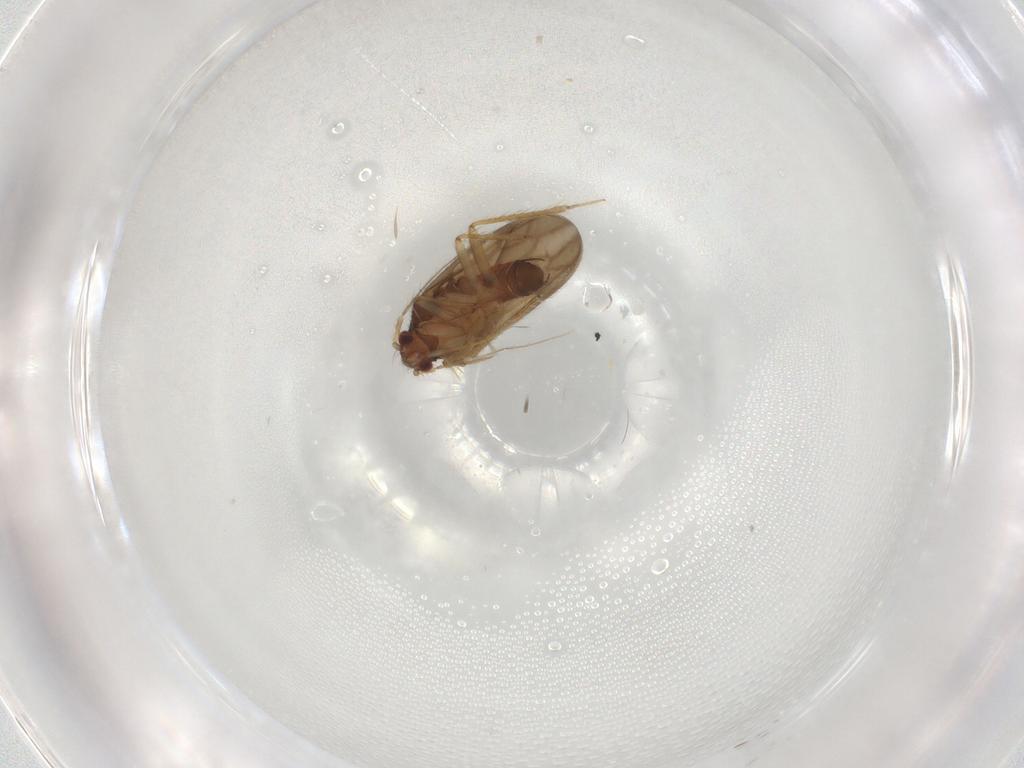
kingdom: Animalia
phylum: Arthropoda
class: Insecta
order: Hemiptera
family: Ceratocombidae
